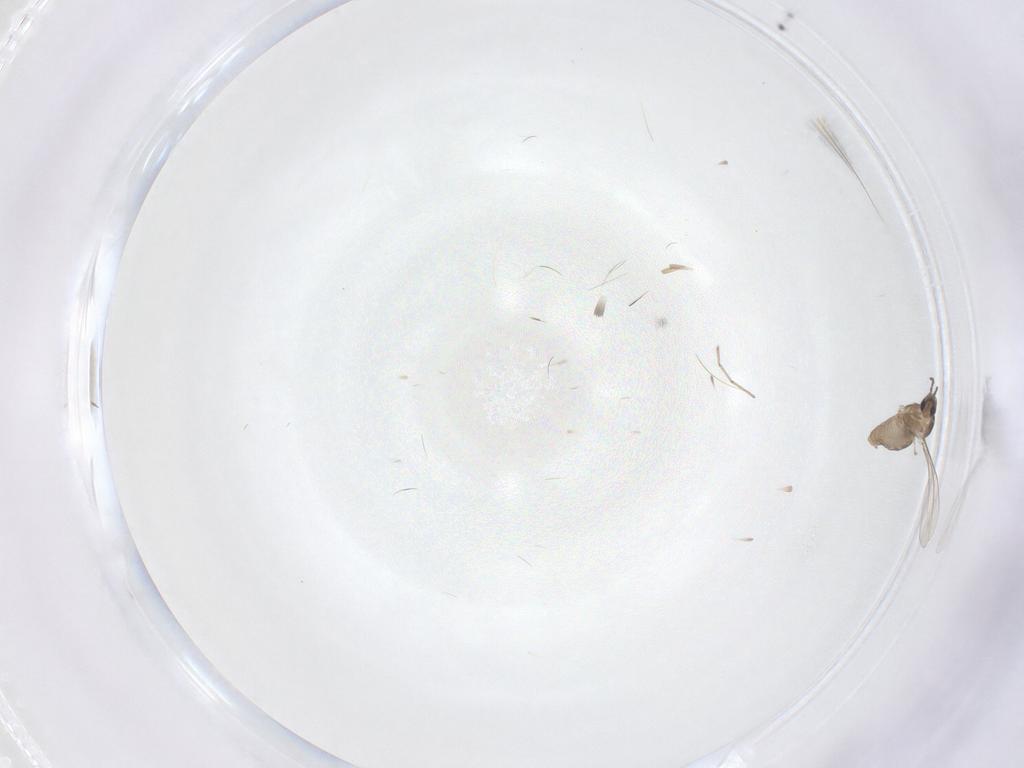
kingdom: Animalia
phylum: Arthropoda
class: Insecta
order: Diptera
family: Cecidomyiidae
